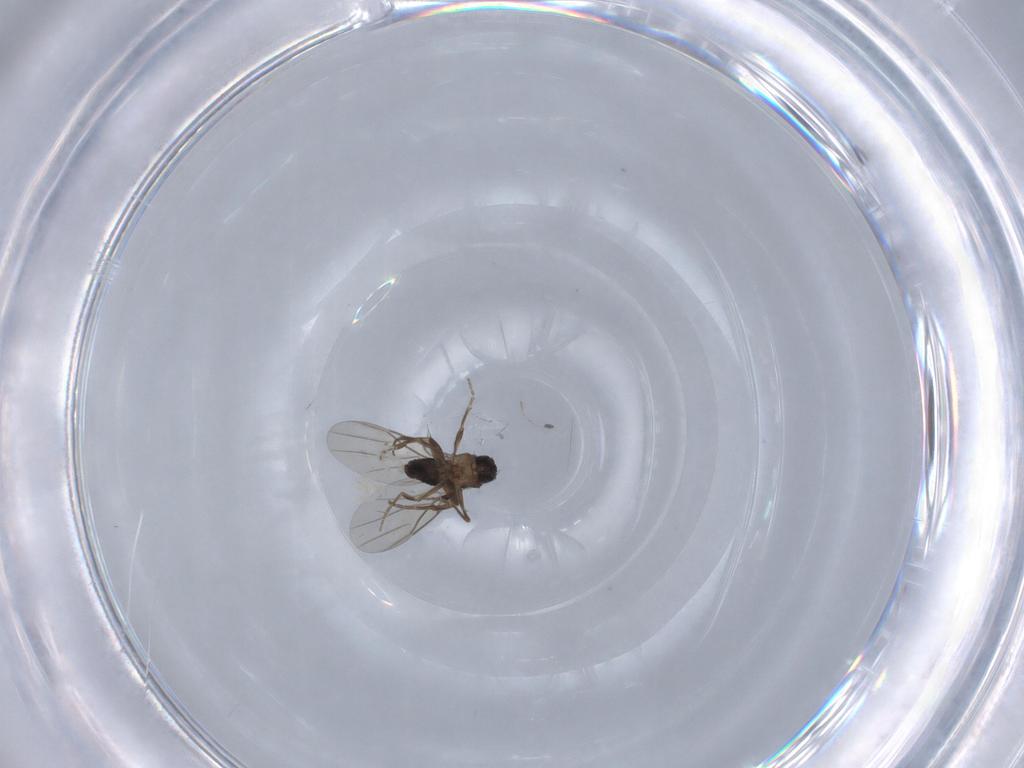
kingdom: Animalia
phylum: Arthropoda
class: Insecta
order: Diptera
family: Phoridae
